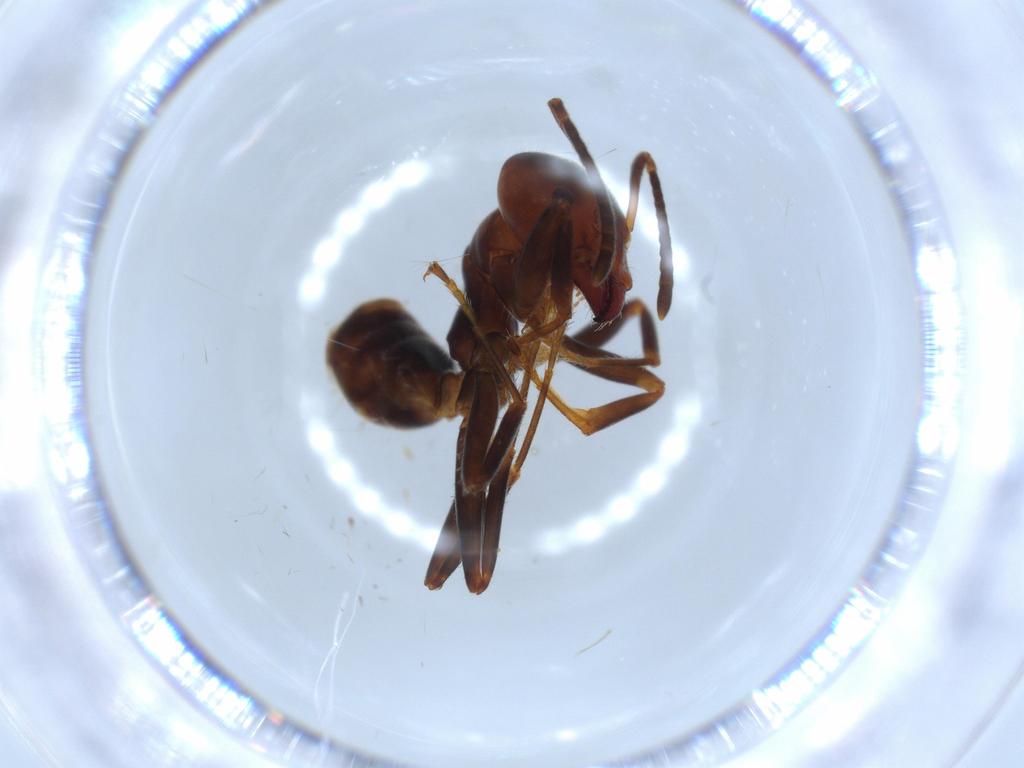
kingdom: Animalia
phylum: Arthropoda
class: Insecta
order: Hymenoptera
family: Formicidae
